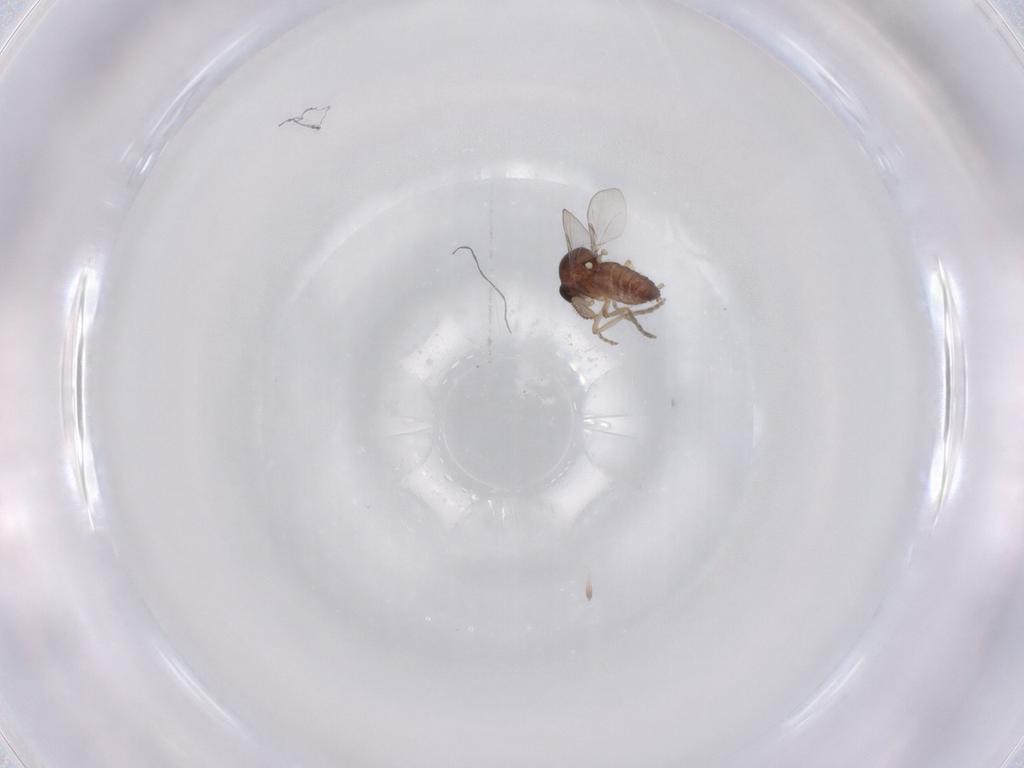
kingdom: Animalia
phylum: Arthropoda
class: Insecta
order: Diptera
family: Ceratopogonidae
